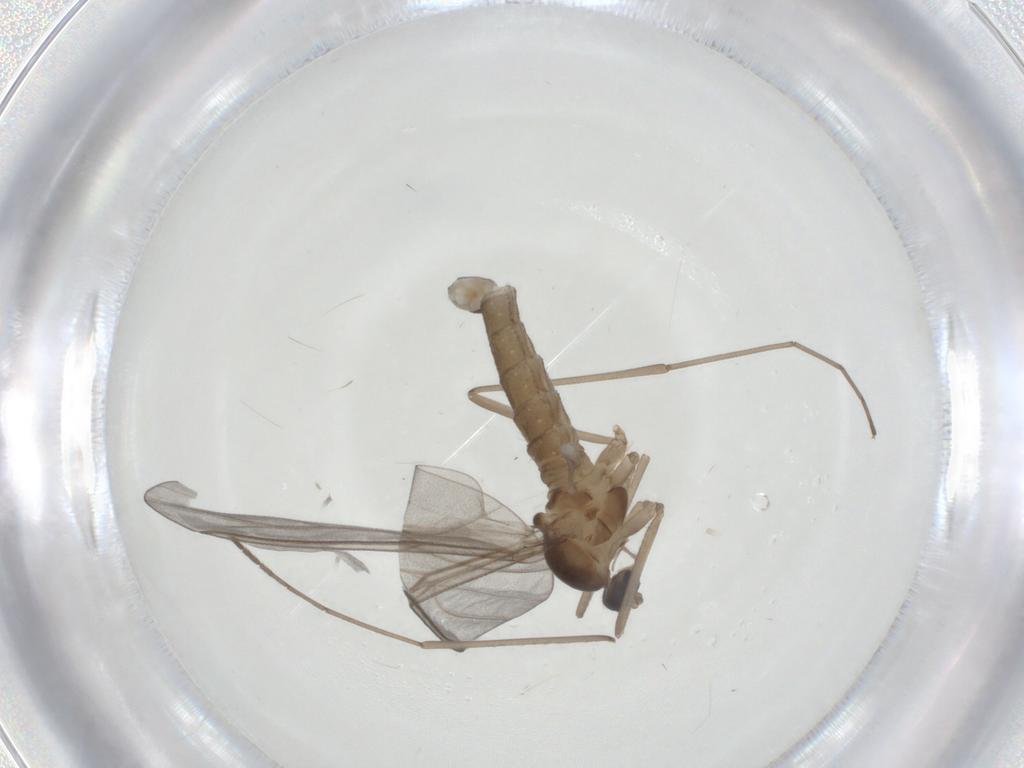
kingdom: Animalia
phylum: Arthropoda
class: Insecta
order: Diptera
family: Cecidomyiidae
